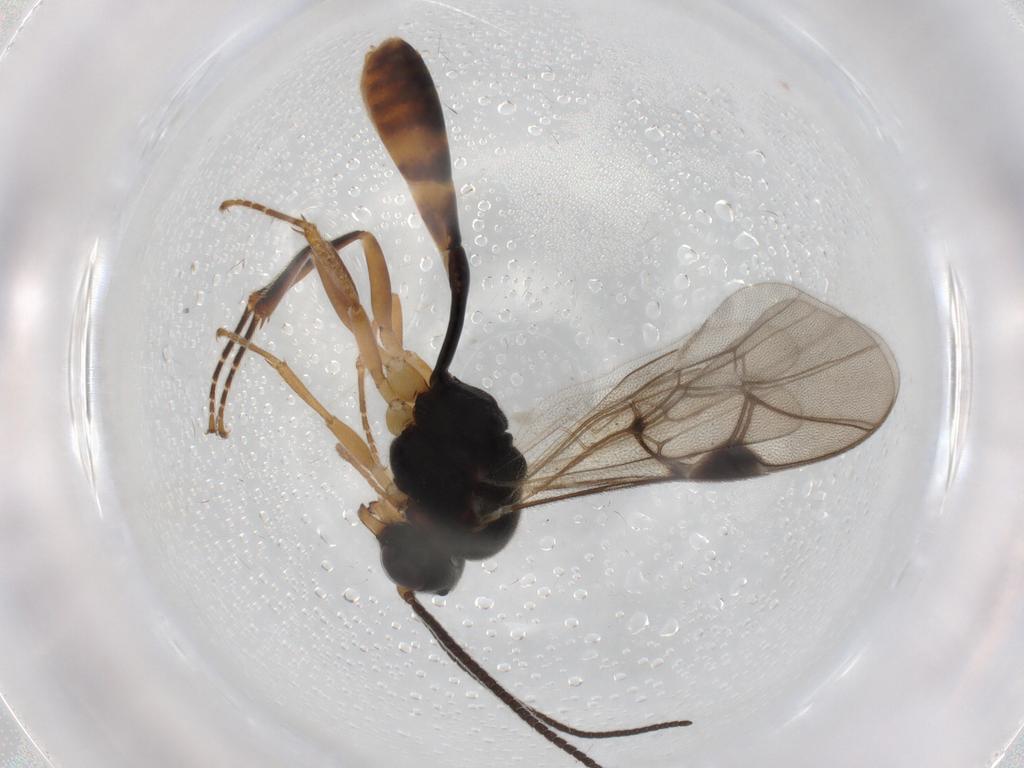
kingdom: Animalia
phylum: Arthropoda
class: Insecta
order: Hymenoptera
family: Ichneumonidae
